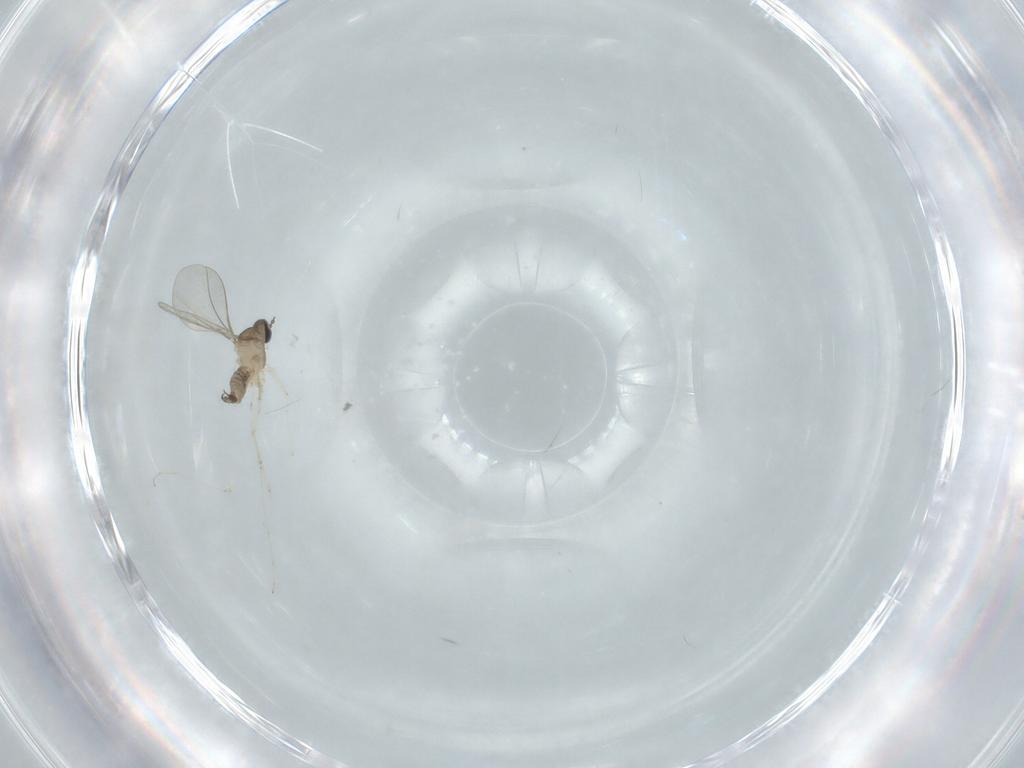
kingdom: Animalia
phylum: Arthropoda
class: Insecta
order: Diptera
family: Cecidomyiidae
